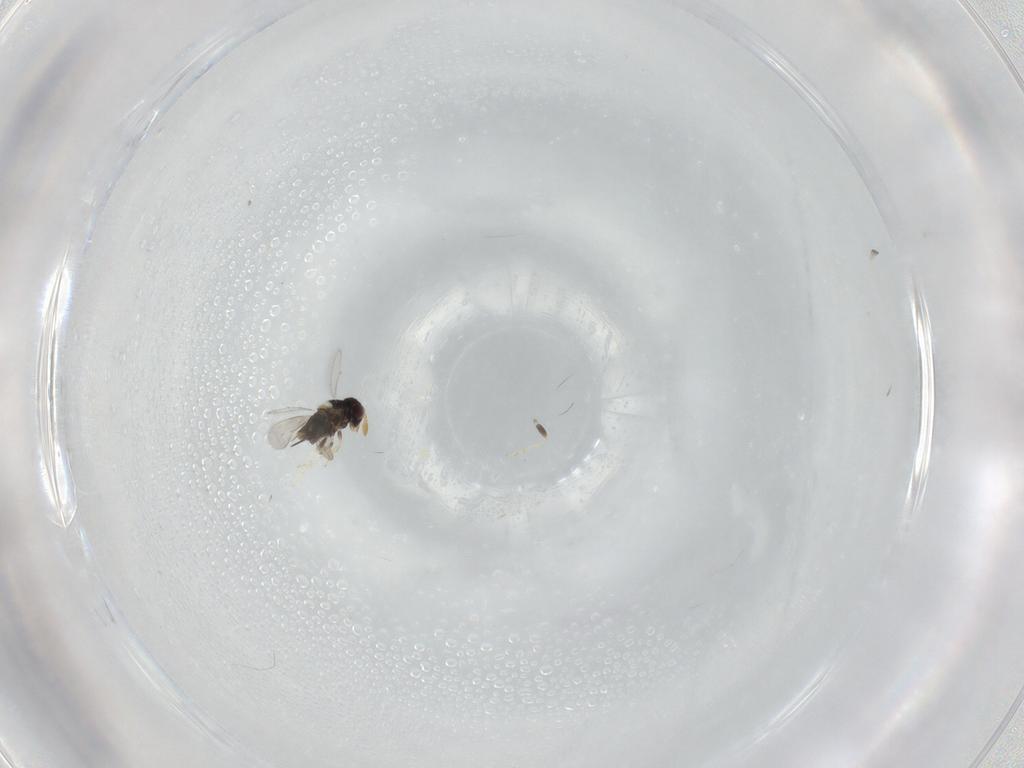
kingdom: Animalia
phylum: Arthropoda
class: Insecta
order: Hymenoptera
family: Aphelinidae
